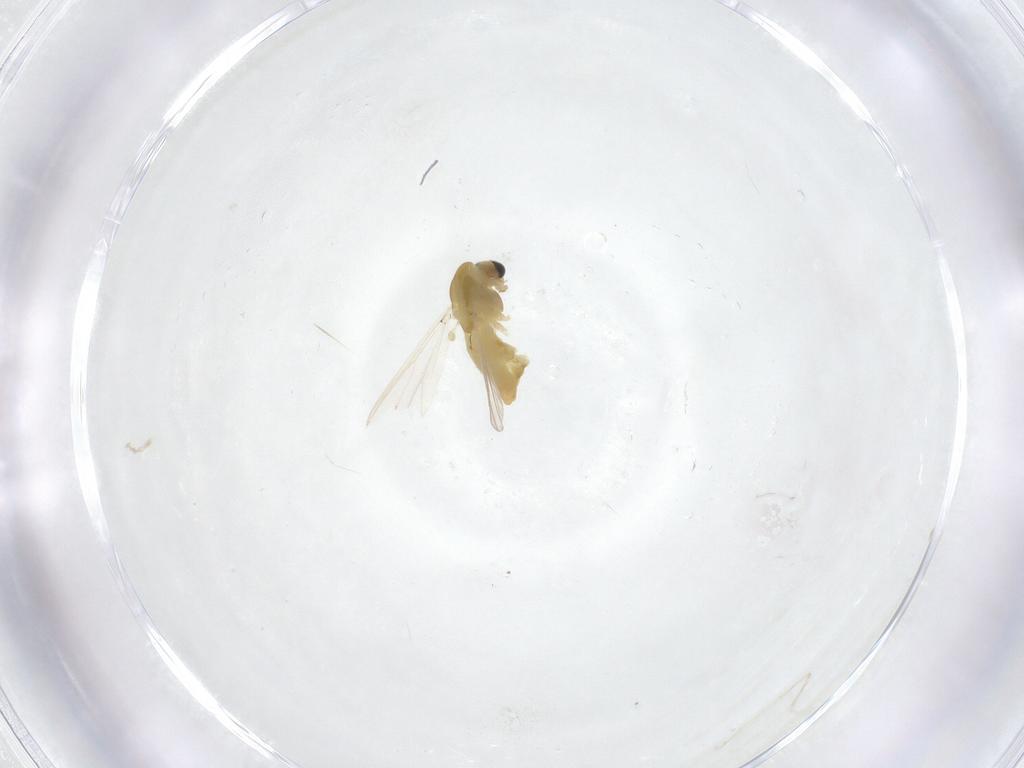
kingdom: Animalia
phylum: Arthropoda
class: Insecta
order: Diptera
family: Chironomidae
